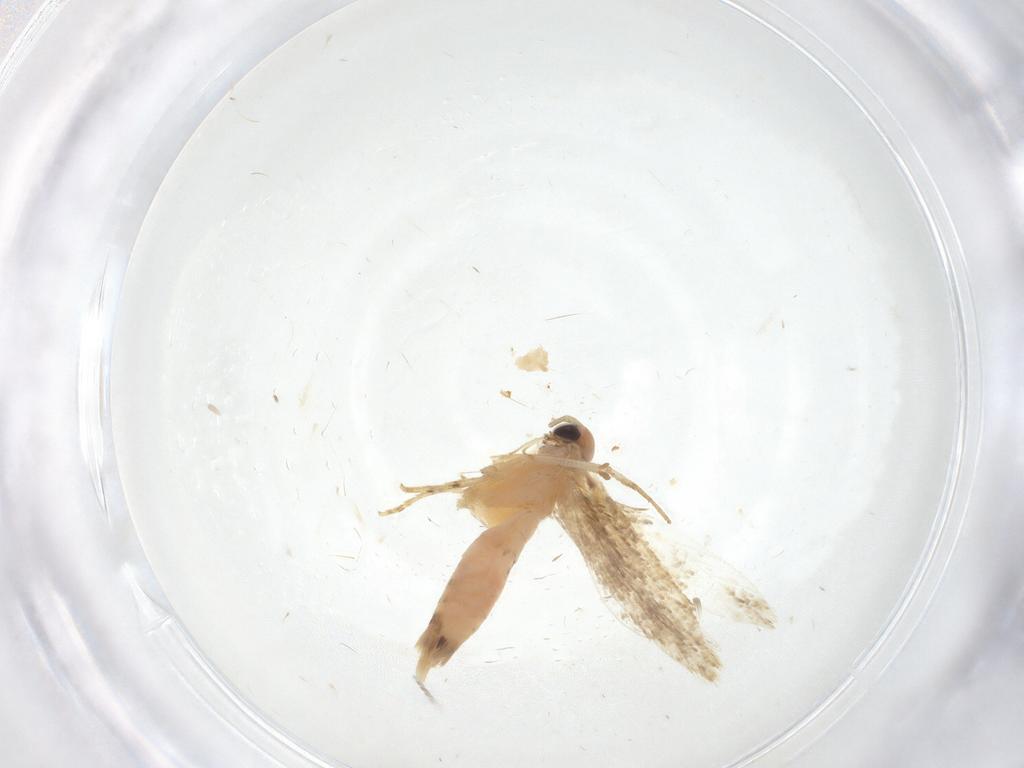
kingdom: Animalia
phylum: Arthropoda
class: Insecta
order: Lepidoptera
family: Gelechiidae
